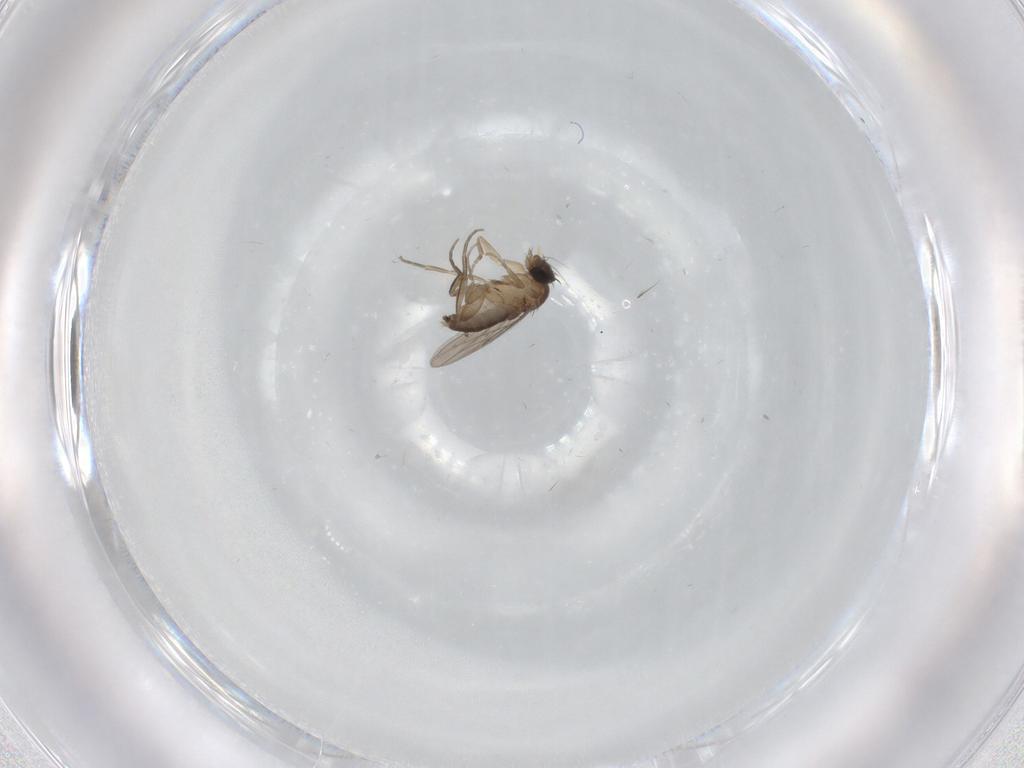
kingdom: Animalia
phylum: Arthropoda
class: Insecta
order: Diptera
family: Phoridae
